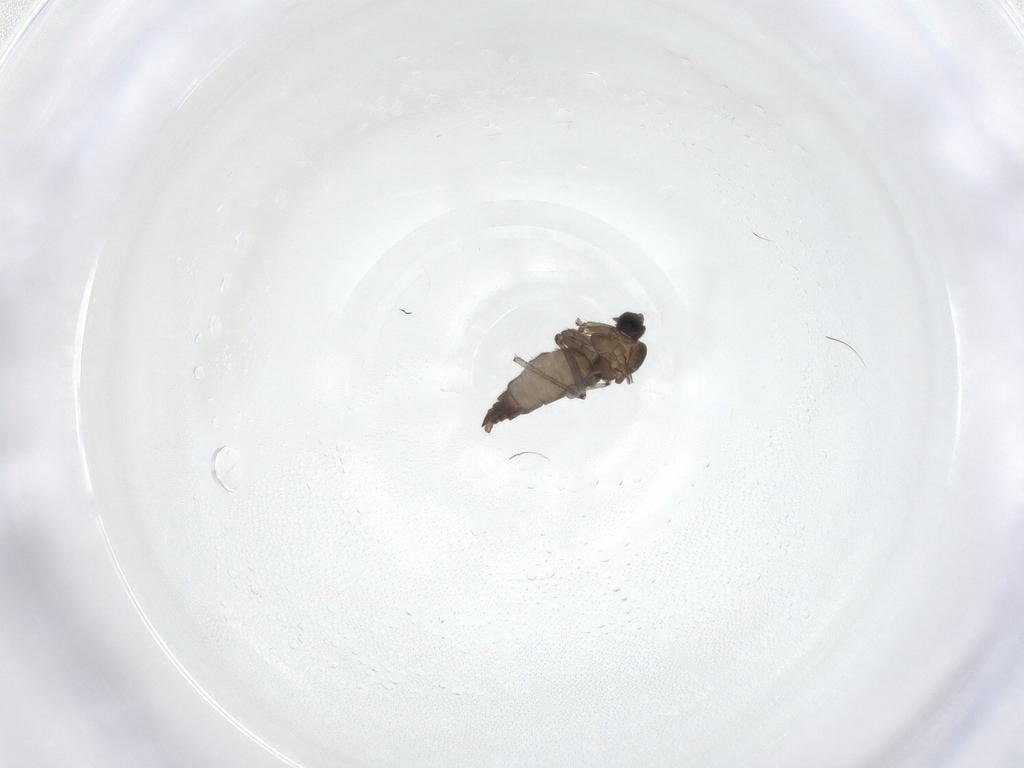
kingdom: Animalia
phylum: Arthropoda
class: Insecta
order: Diptera
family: Sciaridae
